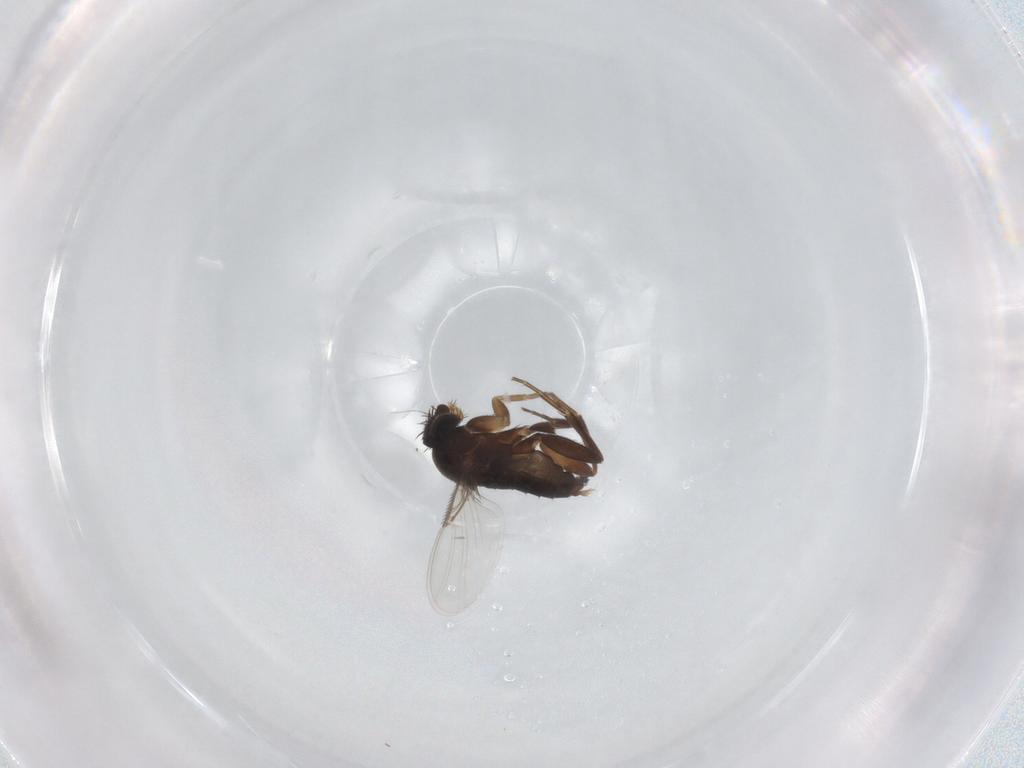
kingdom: Animalia
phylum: Arthropoda
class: Insecta
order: Diptera
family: Phoridae
